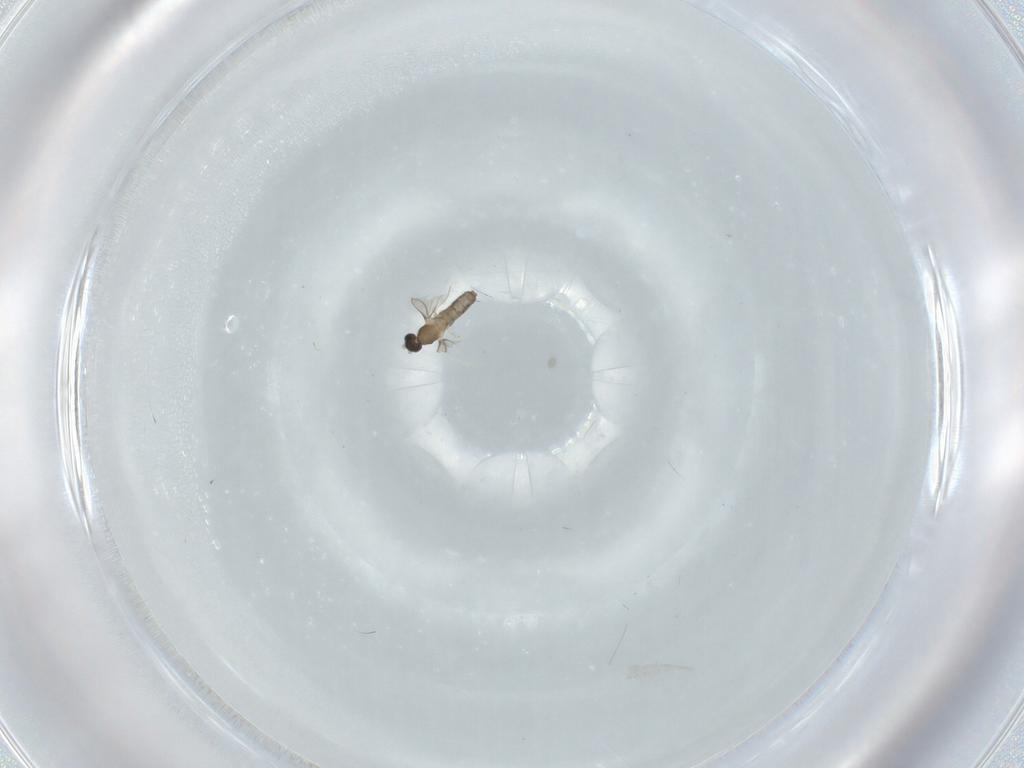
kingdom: Animalia
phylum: Arthropoda
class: Insecta
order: Diptera
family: Cecidomyiidae
